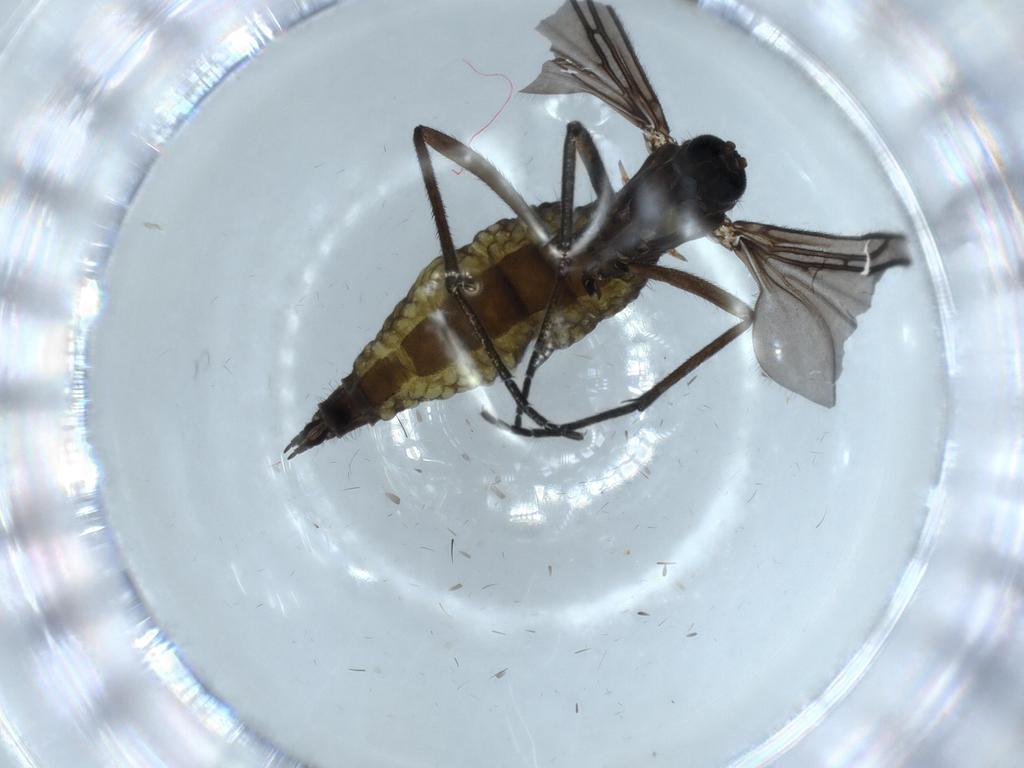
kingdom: Animalia
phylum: Arthropoda
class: Insecta
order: Diptera
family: Sciaridae
